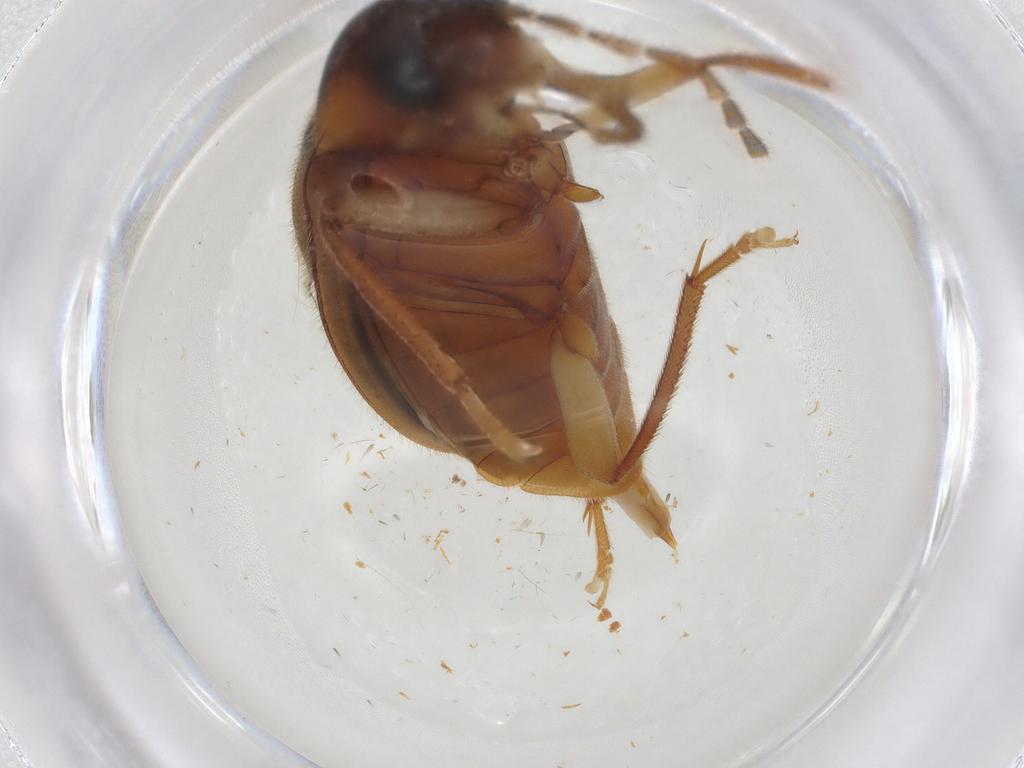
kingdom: Animalia
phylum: Arthropoda
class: Insecta
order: Coleoptera
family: Ptilodactylidae
